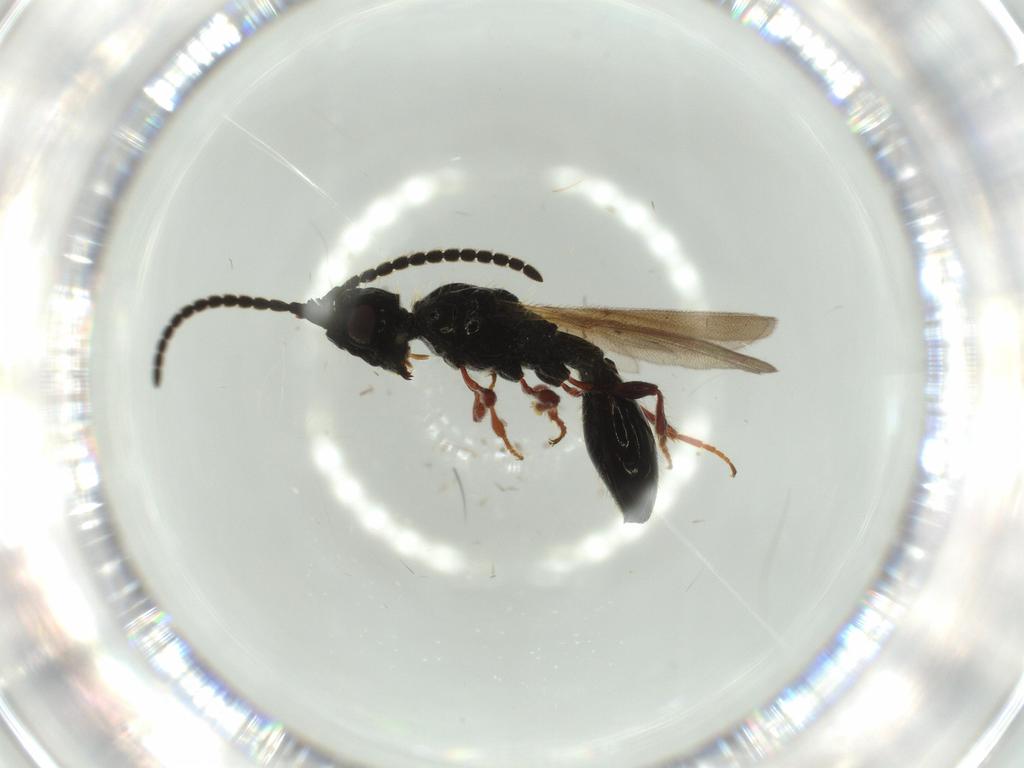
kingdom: Animalia
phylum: Arthropoda
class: Insecta
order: Hymenoptera
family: Diapriidae
